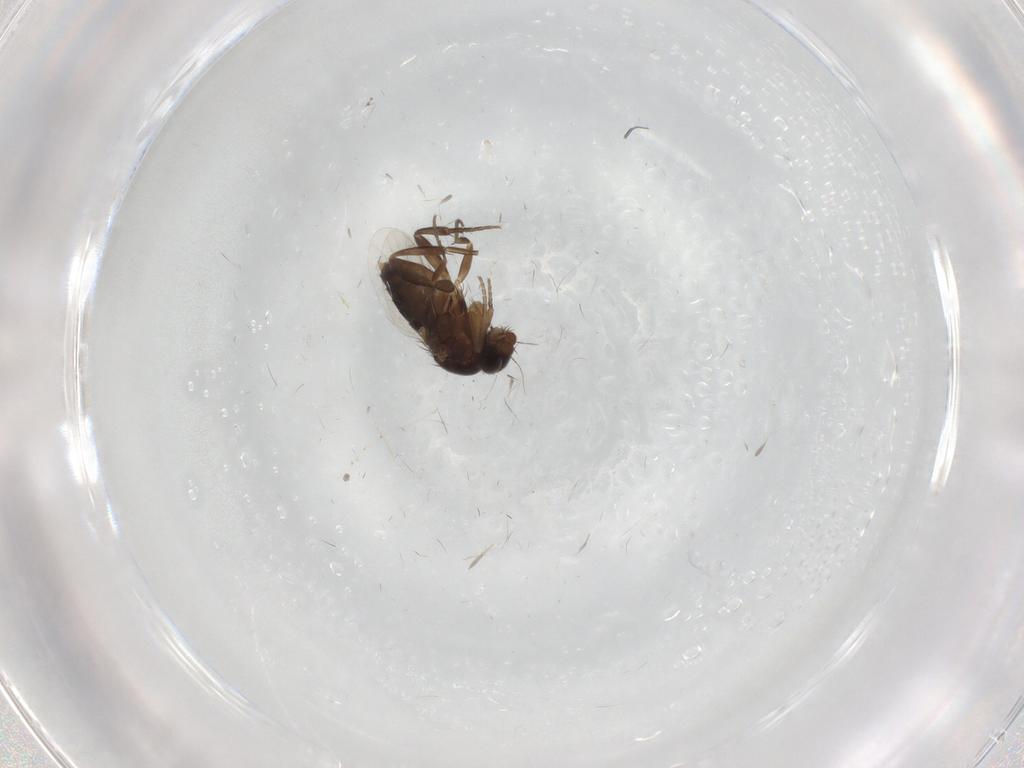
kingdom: Animalia
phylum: Arthropoda
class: Insecta
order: Diptera
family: Phoridae
